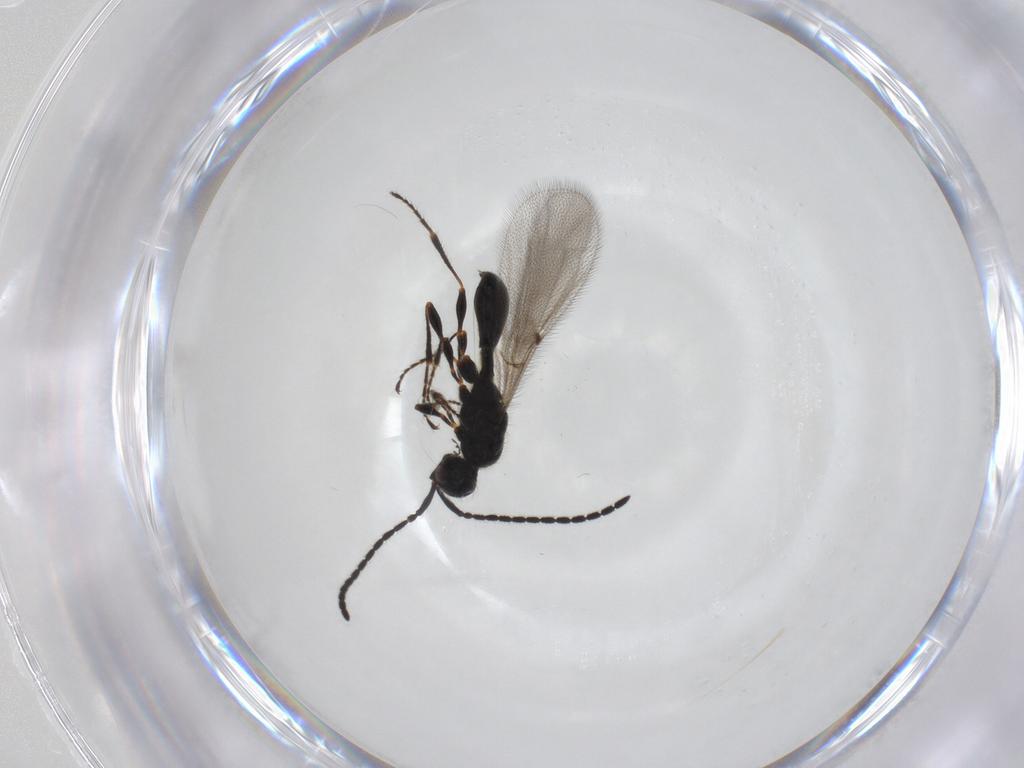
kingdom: Animalia
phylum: Arthropoda
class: Insecta
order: Hymenoptera
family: Diapriidae
